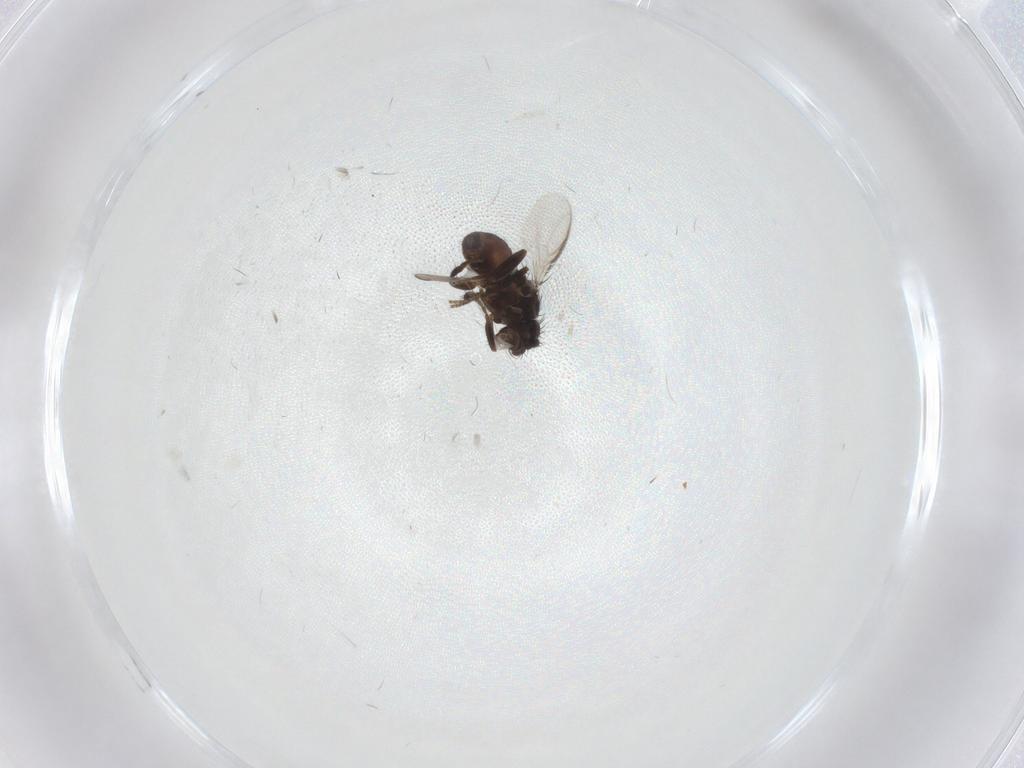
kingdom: Animalia
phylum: Arthropoda
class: Insecta
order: Diptera
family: Sphaeroceridae
